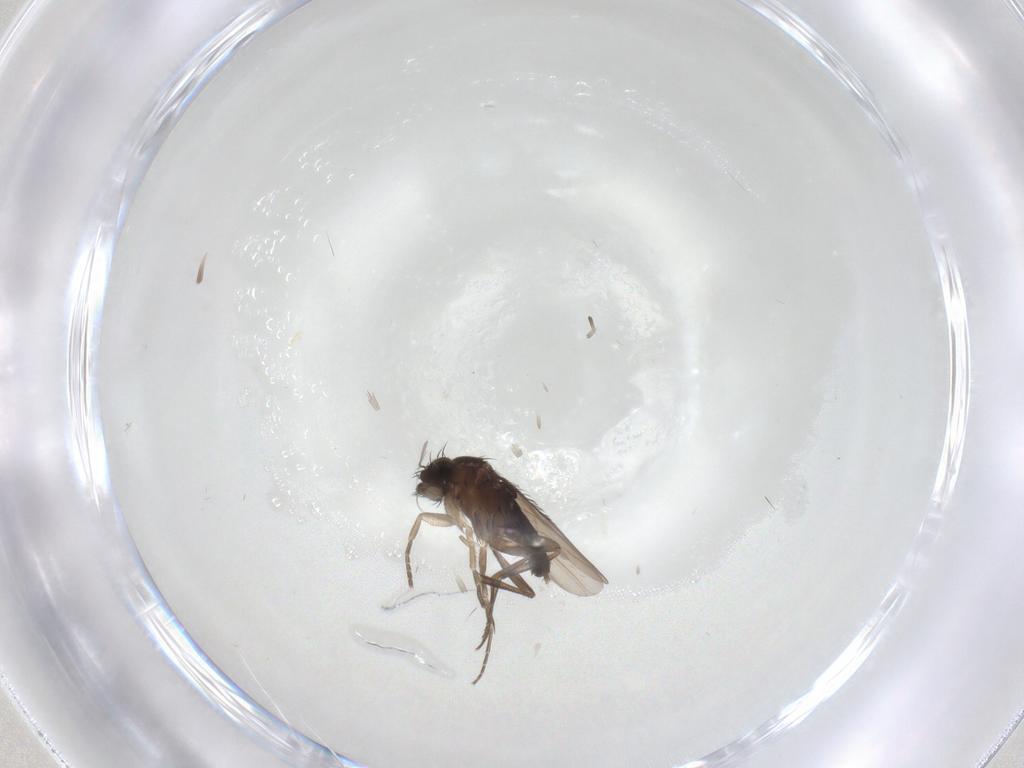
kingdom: Animalia
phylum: Arthropoda
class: Insecta
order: Diptera
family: Phoridae
